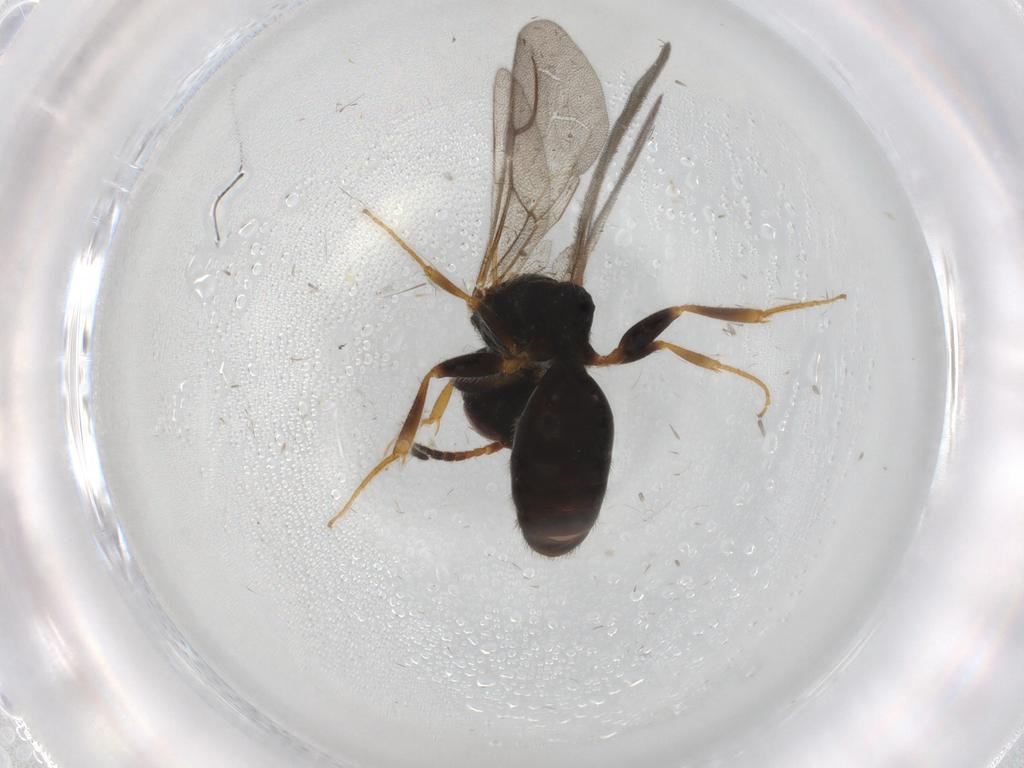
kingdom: Animalia
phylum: Arthropoda
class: Insecta
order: Hymenoptera
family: Bethylidae
